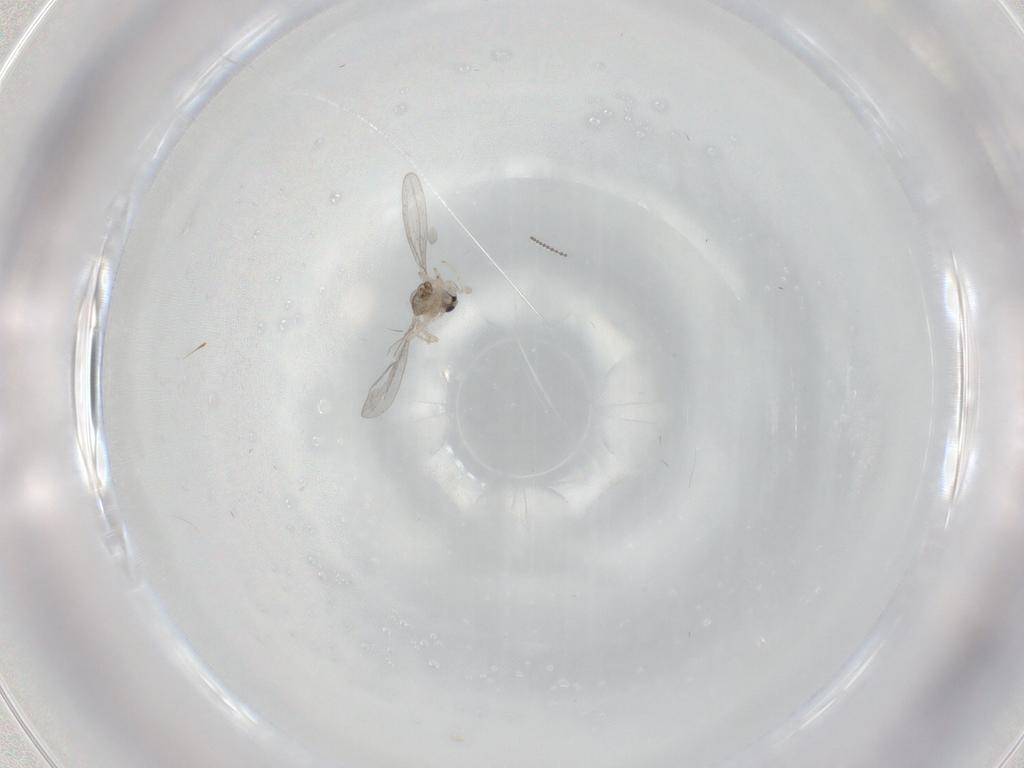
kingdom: Animalia
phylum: Arthropoda
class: Insecta
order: Diptera
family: Cecidomyiidae
